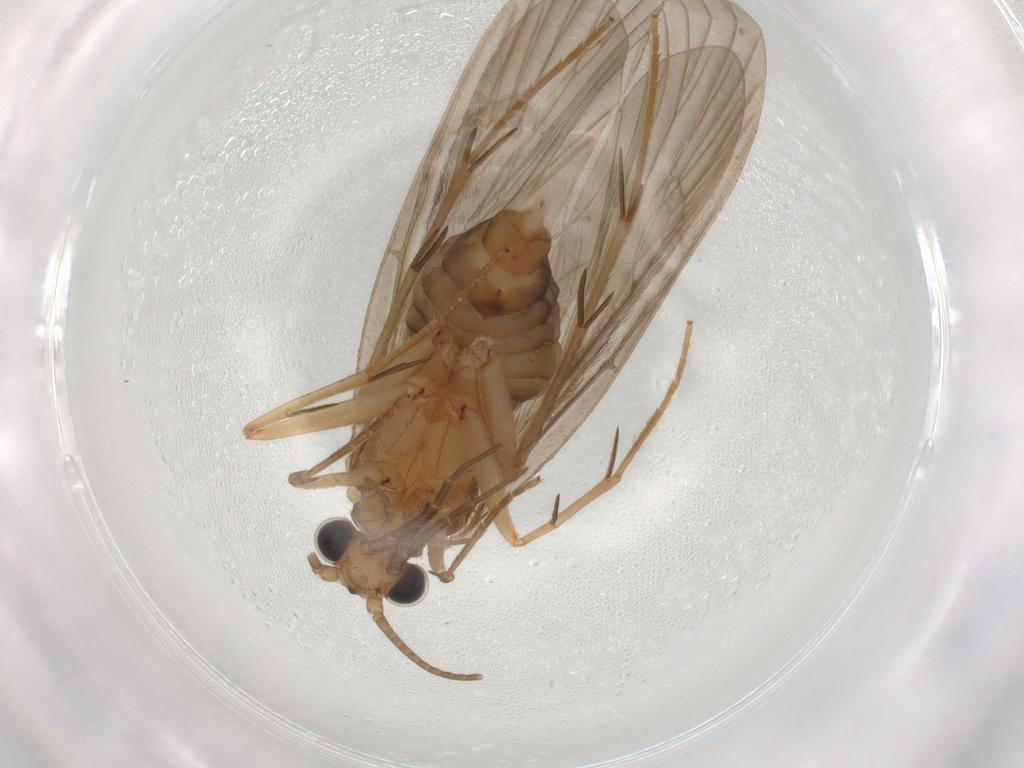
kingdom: Animalia
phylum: Arthropoda
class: Insecta
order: Trichoptera
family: Philopotamidae
